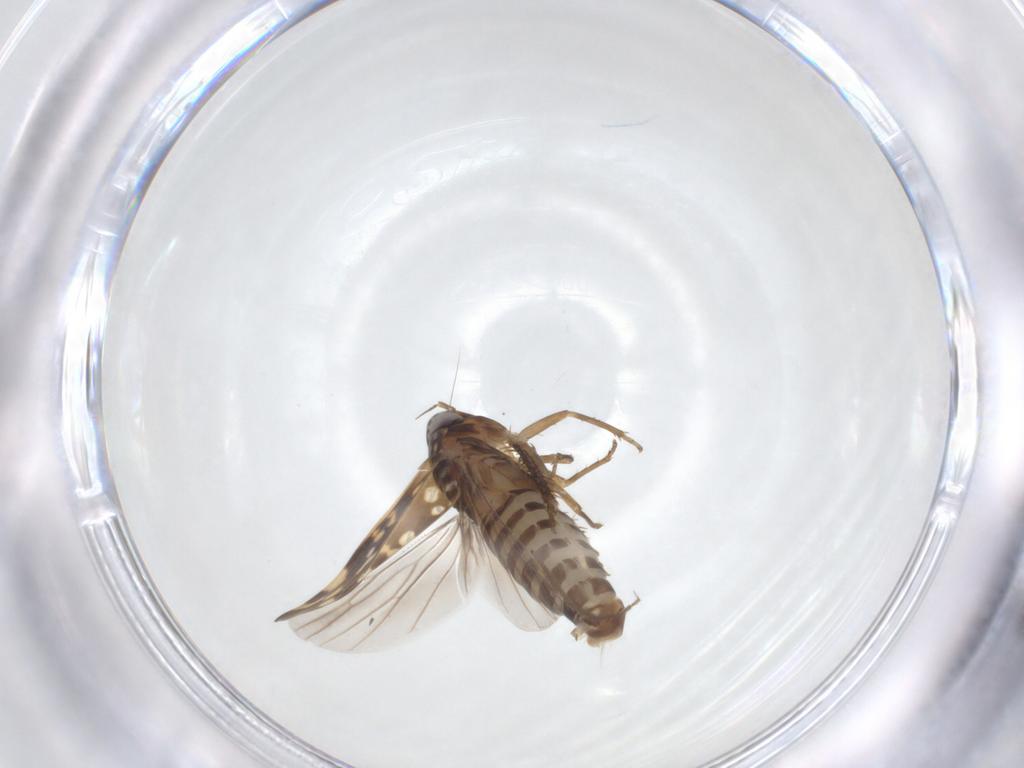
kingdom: Animalia
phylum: Arthropoda
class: Insecta
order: Hemiptera
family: Cicadellidae
